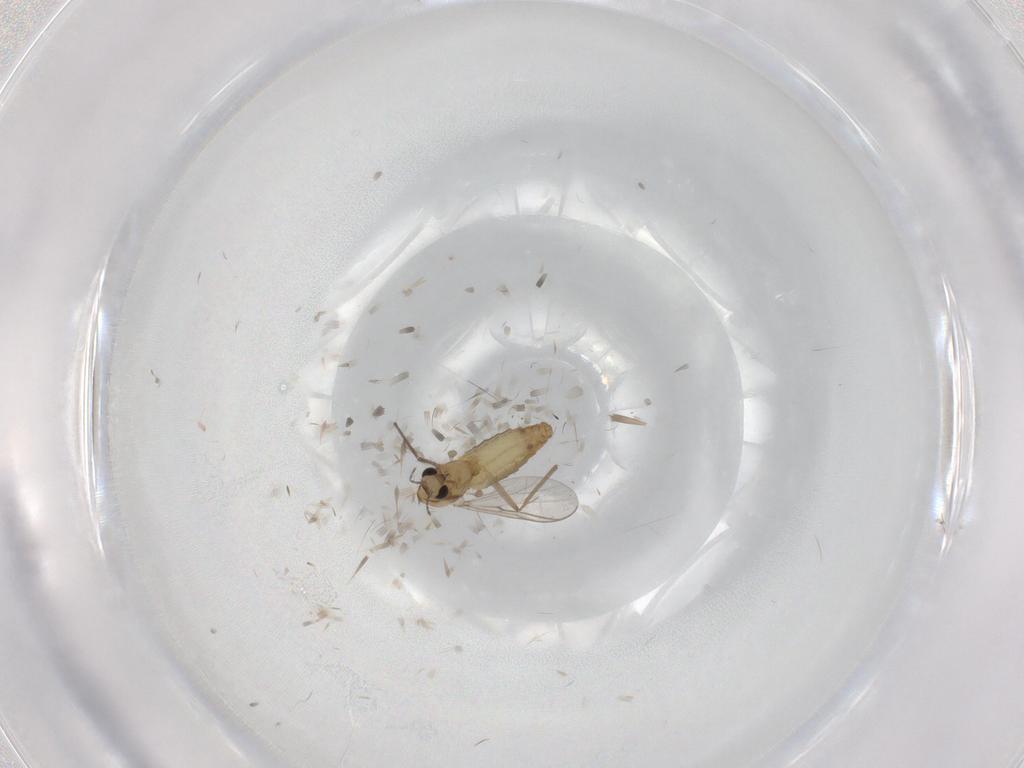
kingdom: Animalia
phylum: Arthropoda
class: Insecta
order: Diptera
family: Chironomidae
